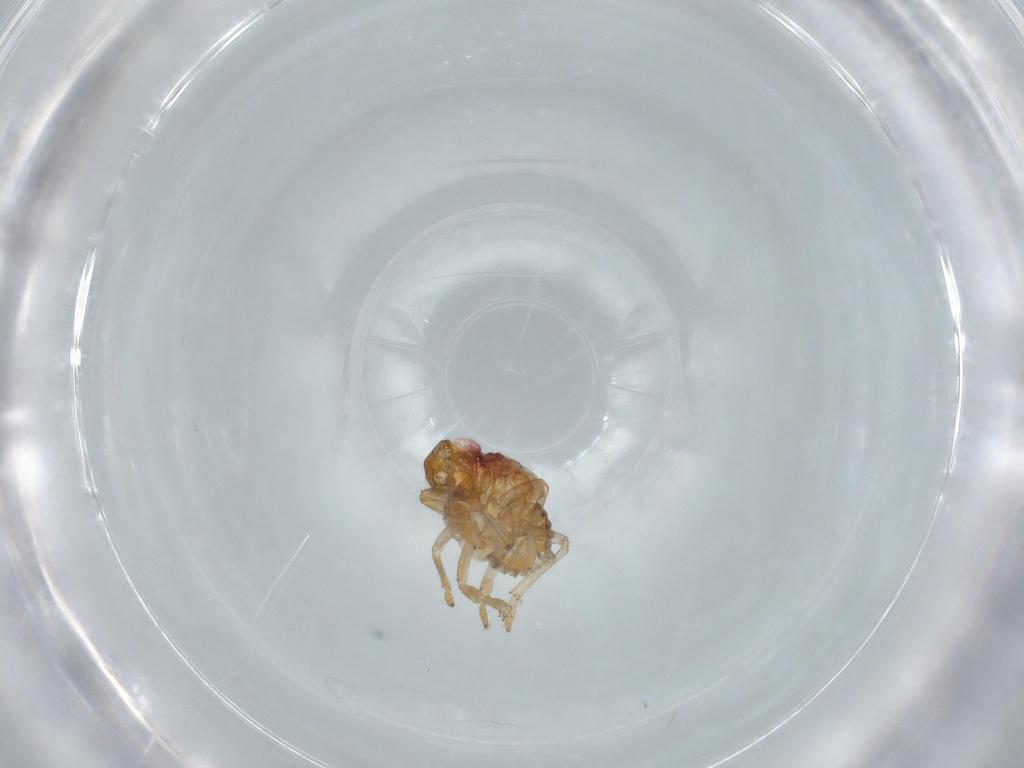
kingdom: Animalia
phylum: Arthropoda
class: Insecta
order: Hemiptera
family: Issidae
